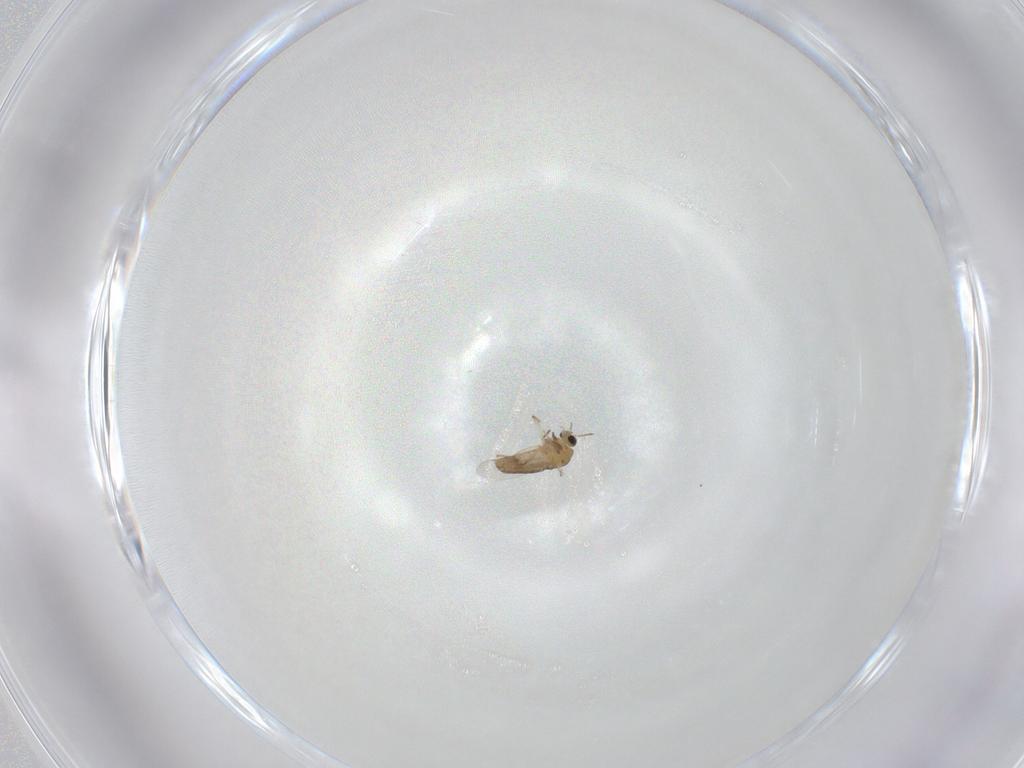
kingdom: Animalia
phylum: Arthropoda
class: Insecta
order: Diptera
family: Chironomidae
